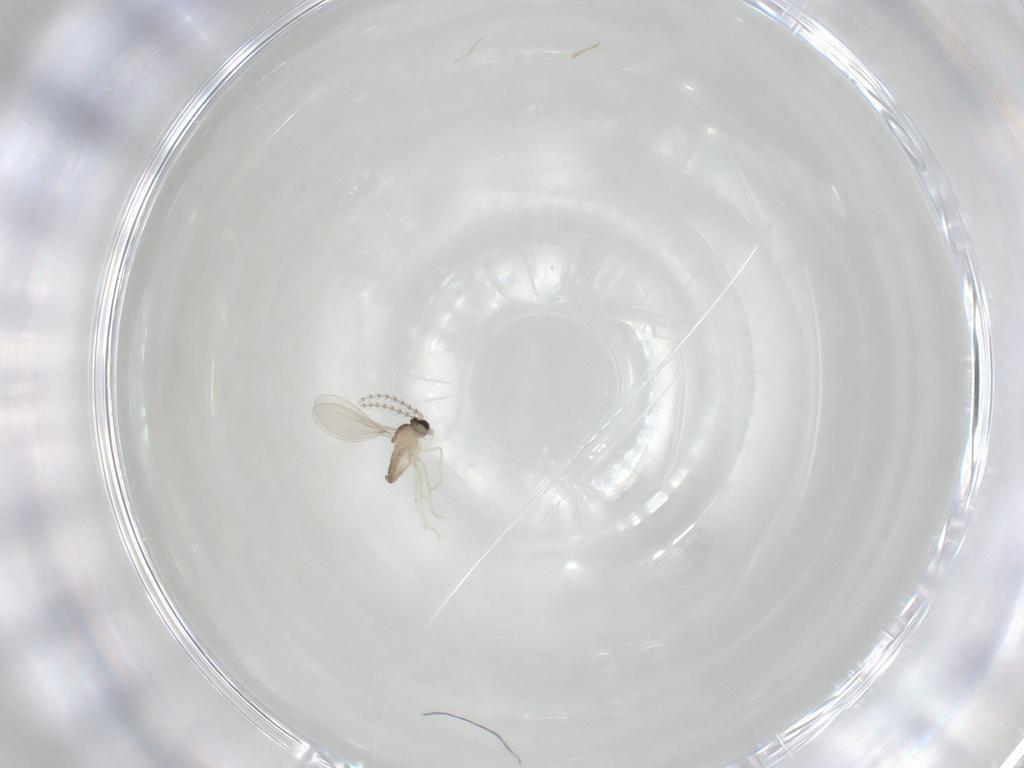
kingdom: Animalia
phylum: Arthropoda
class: Insecta
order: Diptera
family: Cecidomyiidae
